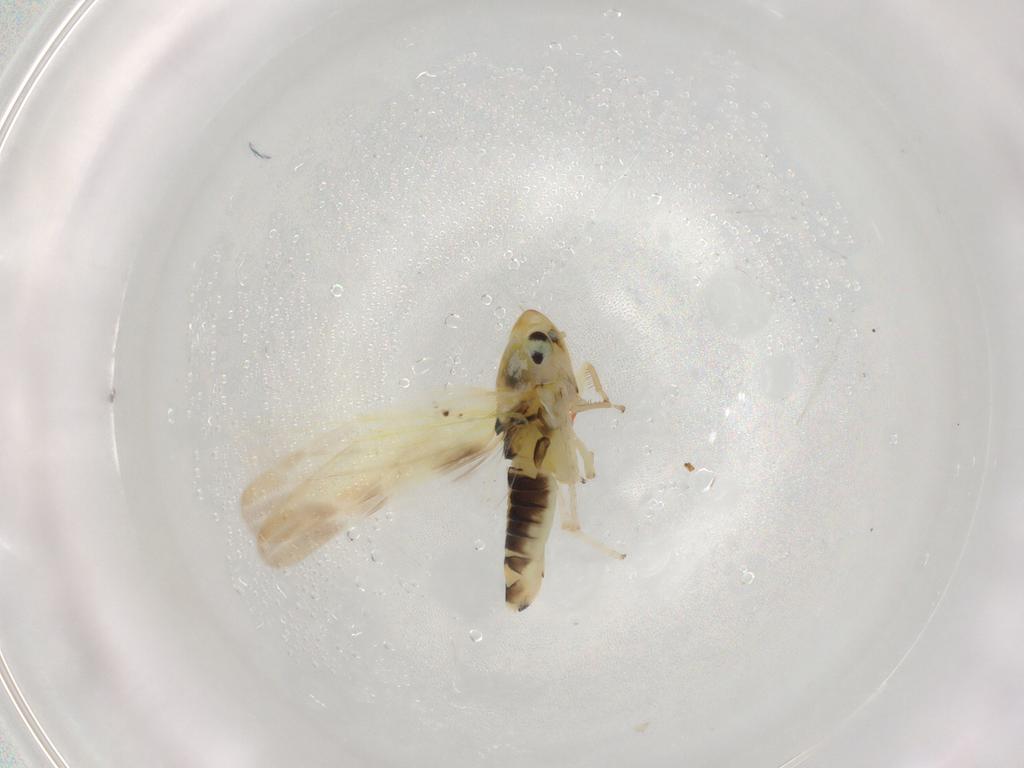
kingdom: Animalia
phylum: Arthropoda
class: Insecta
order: Hemiptera
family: Cicadellidae
